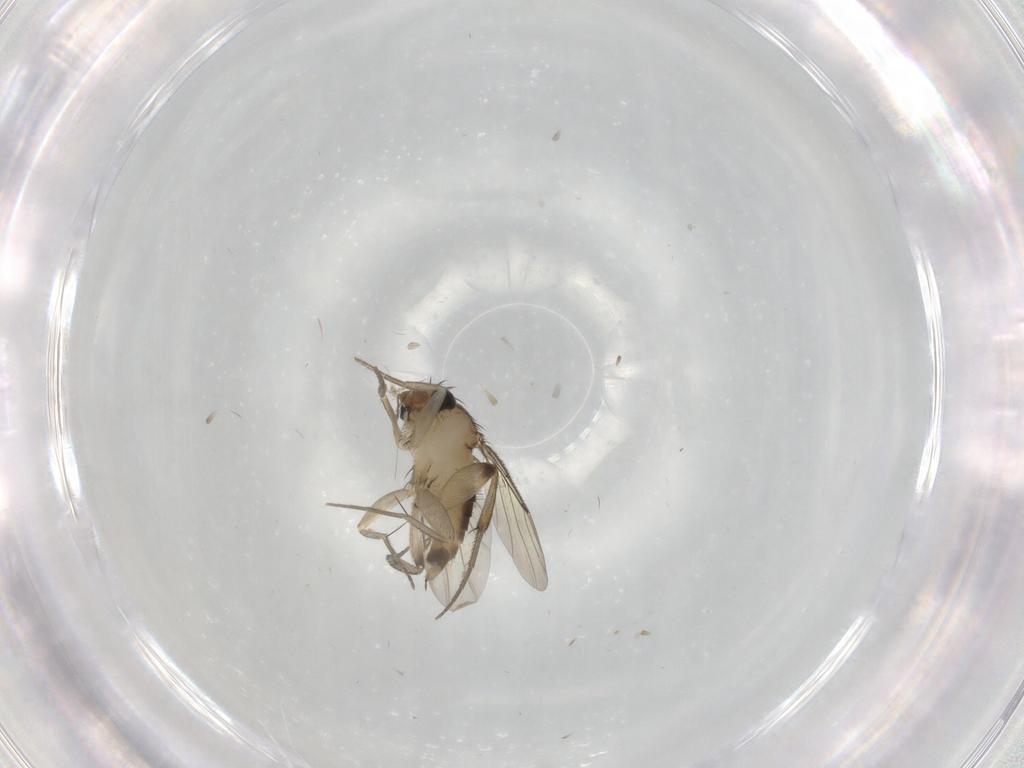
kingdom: Animalia
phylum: Arthropoda
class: Insecta
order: Diptera
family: Phoridae
